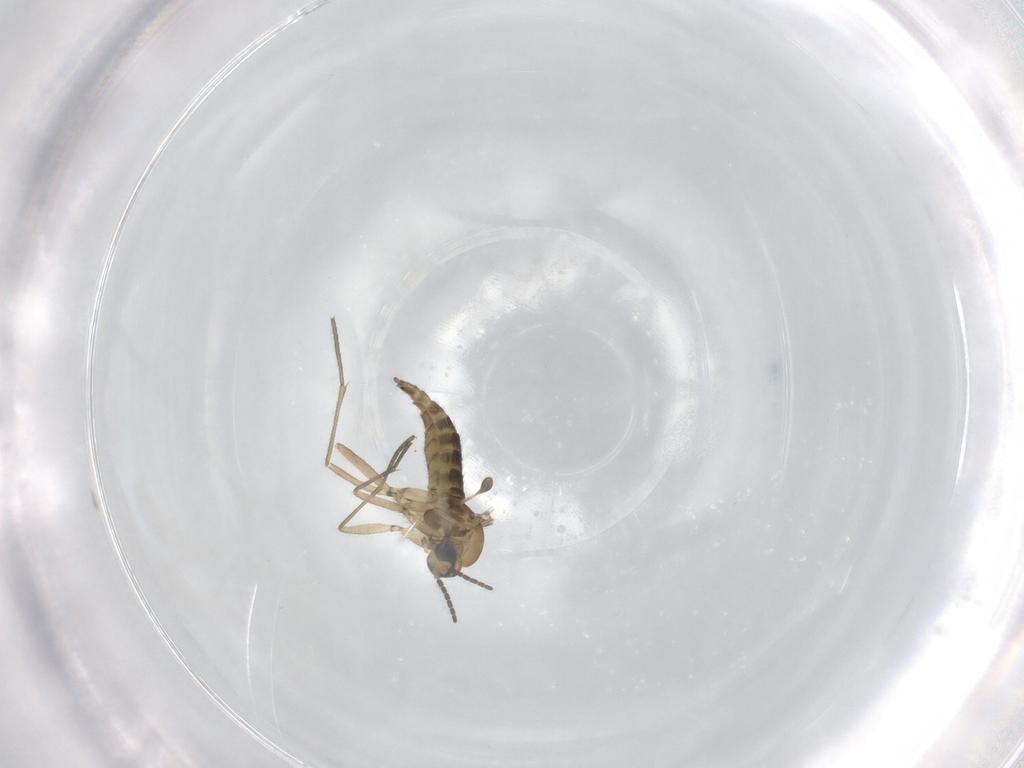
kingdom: Animalia
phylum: Arthropoda
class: Insecta
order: Diptera
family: Sciaridae
